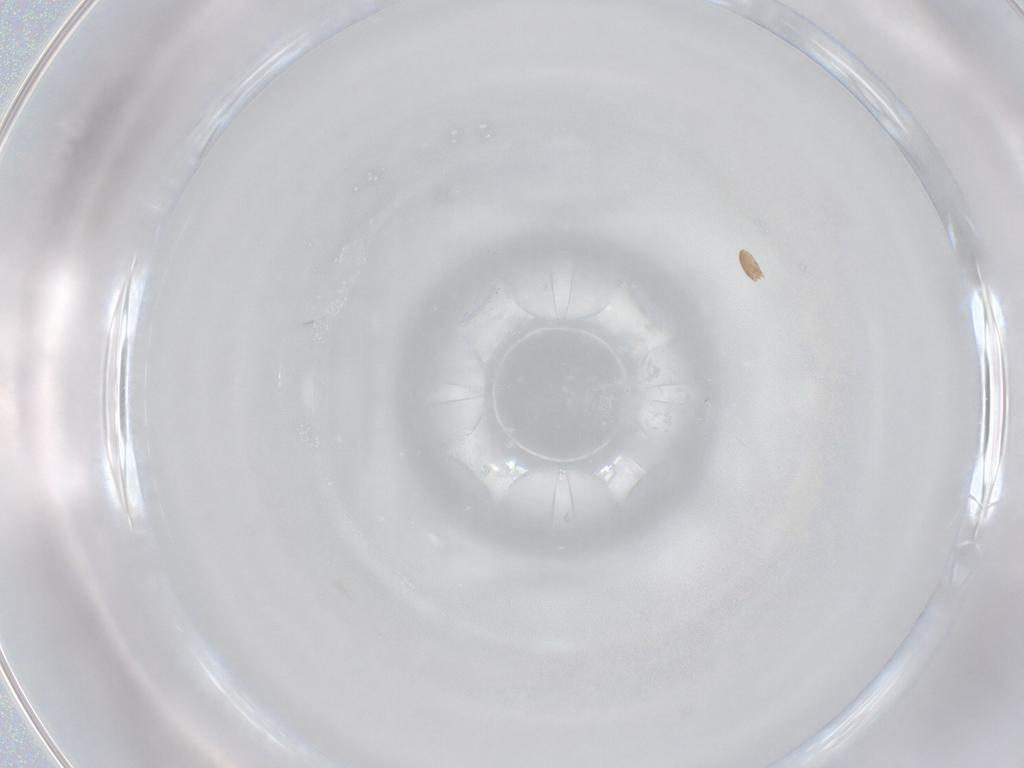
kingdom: Animalia
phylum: Arthropoda
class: Arachnida
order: Araneae
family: Clubionidae
